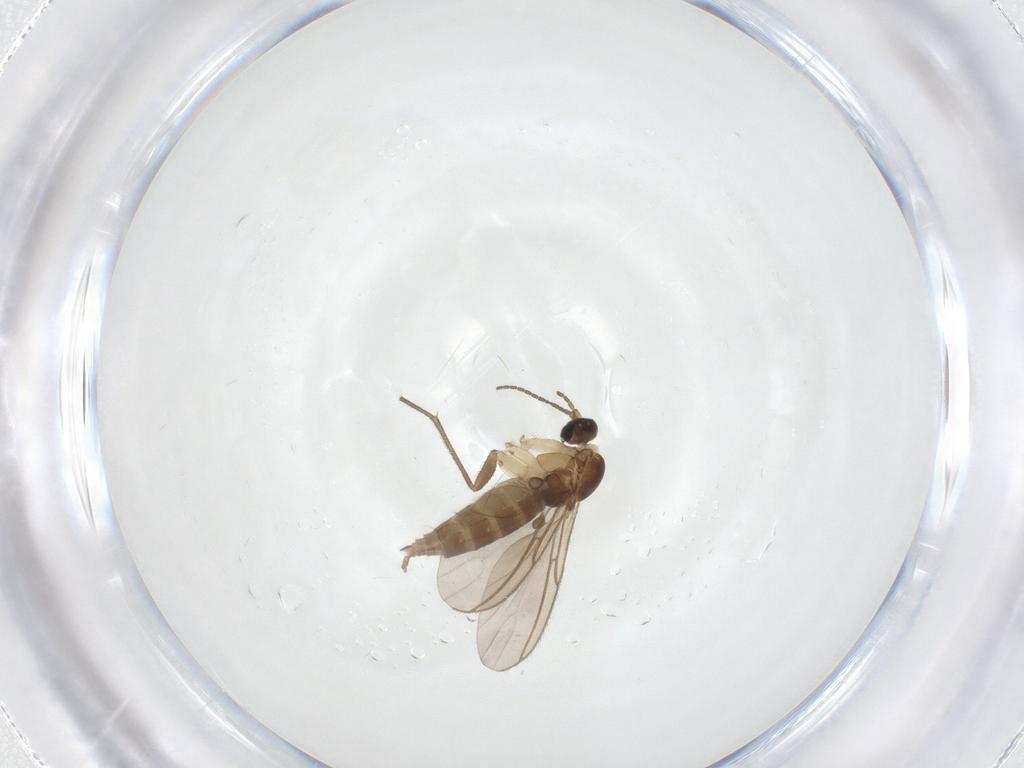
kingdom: Animalia
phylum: Arthropoda
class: Insecta
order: Diptera
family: Sciaridae
